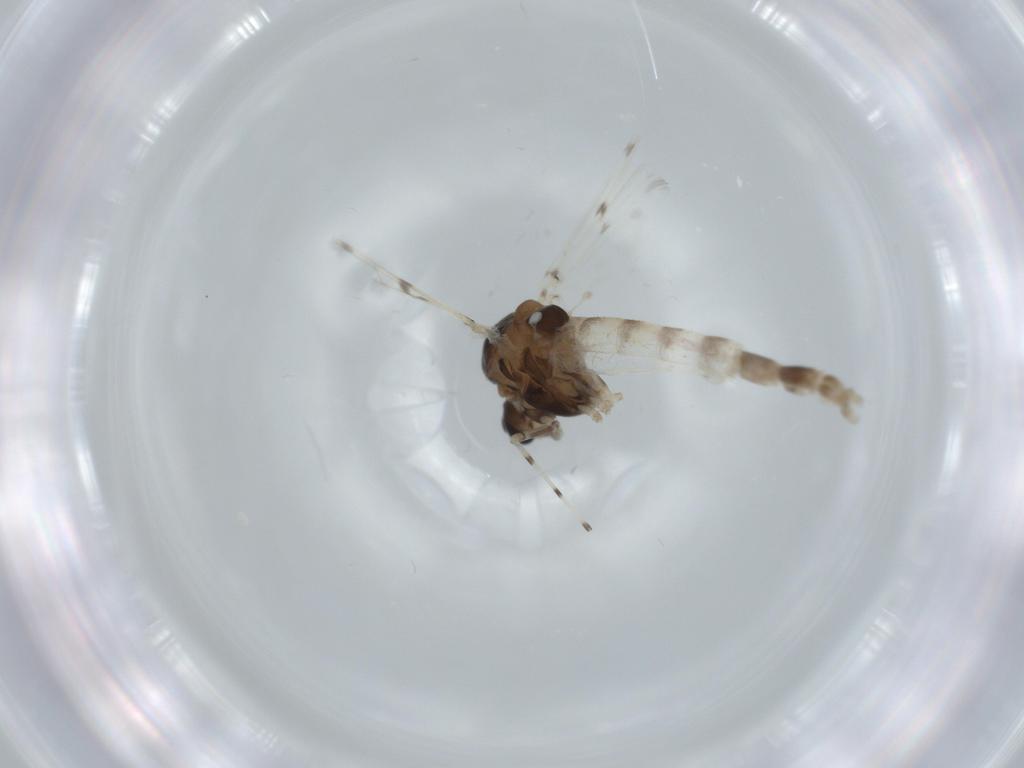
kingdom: Animalia
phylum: Arthropoda
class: Insecta
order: Diptera
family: Chironomidae
